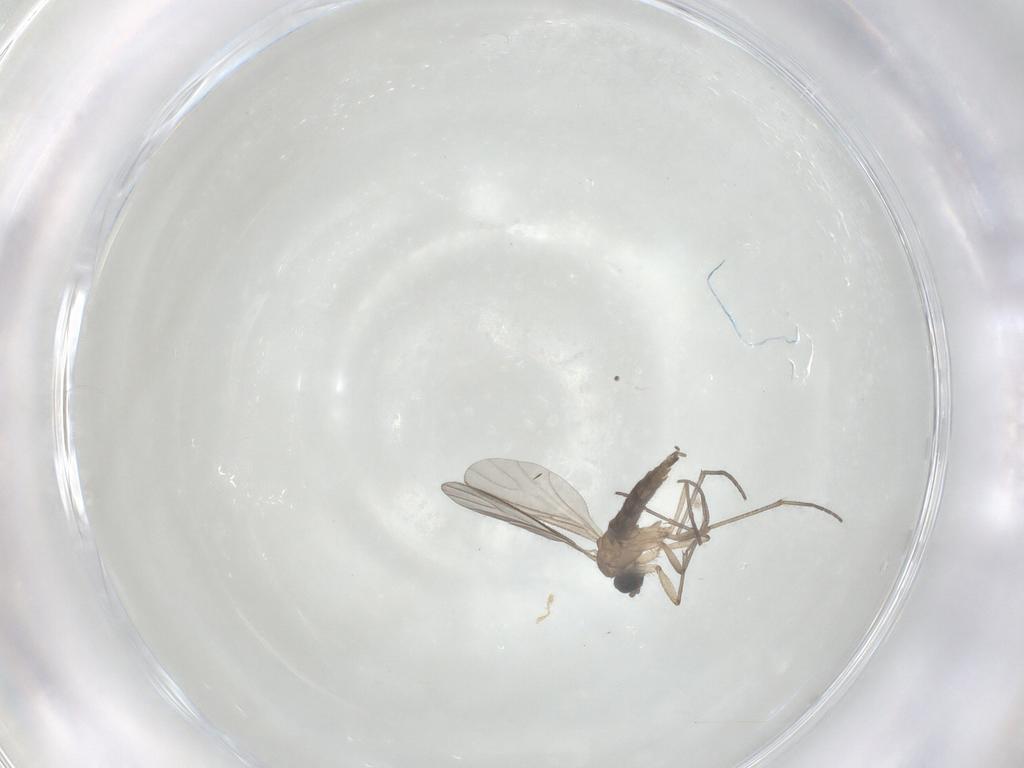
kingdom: Animalia
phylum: Arthropoda
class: Insecta
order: Diptera
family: Sciaridae
